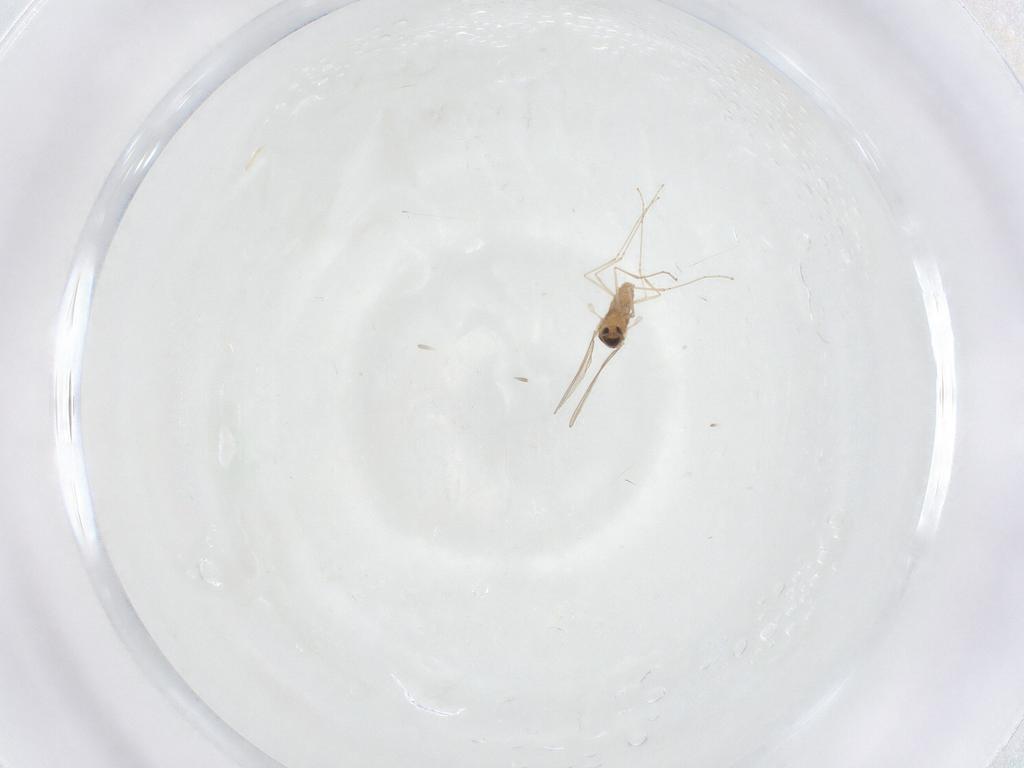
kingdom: Animalia
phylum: Arthropoda
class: Insecta
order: Diptera
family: Cecidomyiidae
